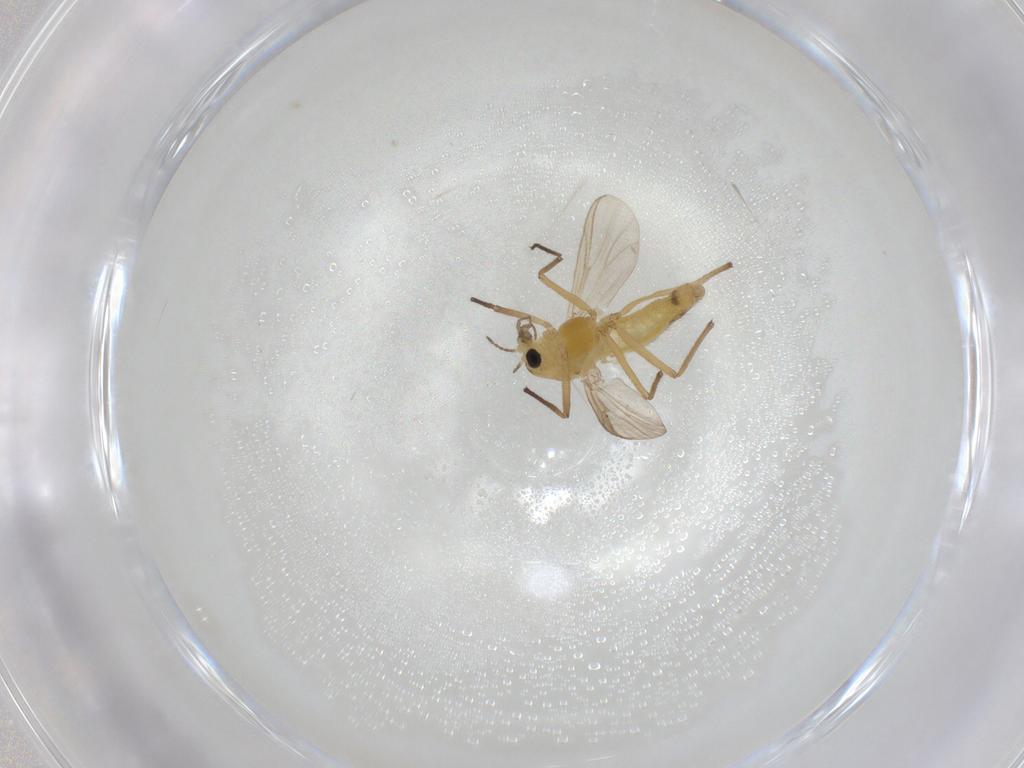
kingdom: Animalia
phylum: Arthropoda
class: Insecta
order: Diptera
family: Chironomidae
